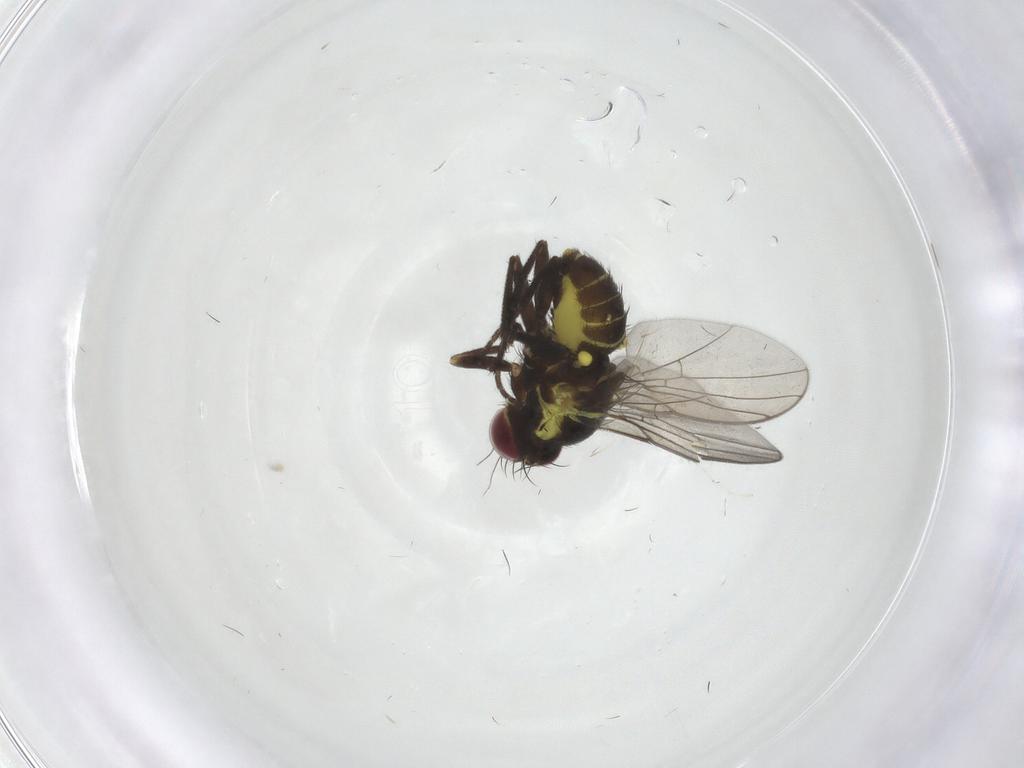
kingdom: Animalia
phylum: Arthropoda
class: Insecta
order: Diptera
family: Agromyzidae
